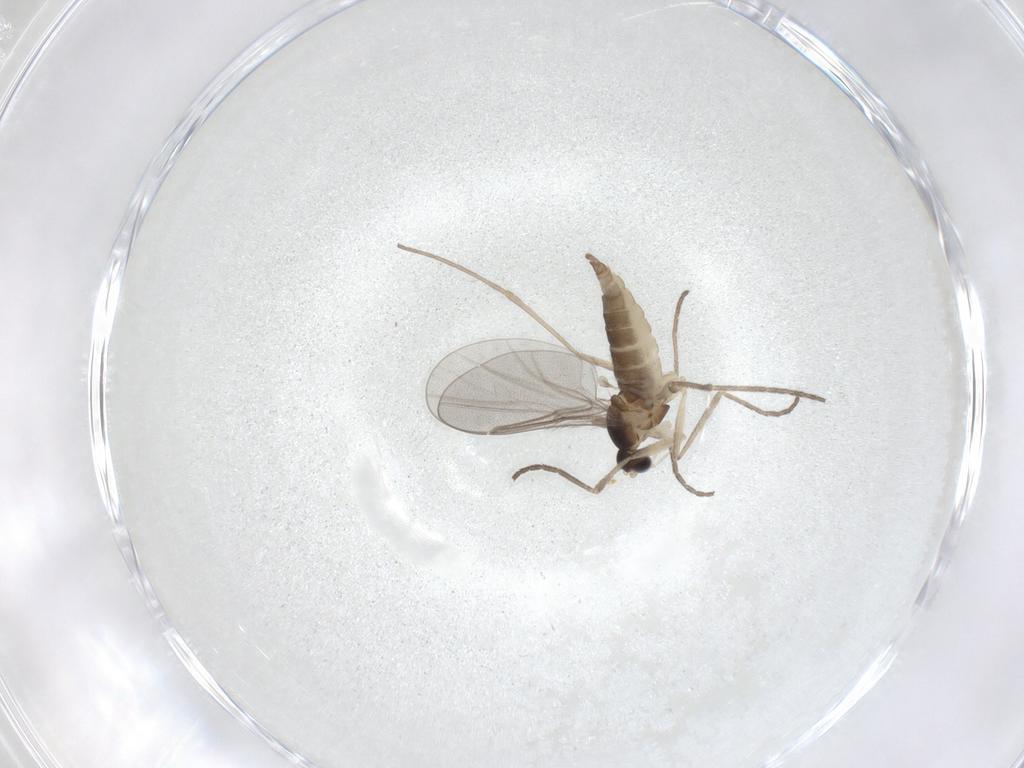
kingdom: Animalia
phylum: Arthropoda
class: Insecta
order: Diptera
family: Cecidomyiidae
